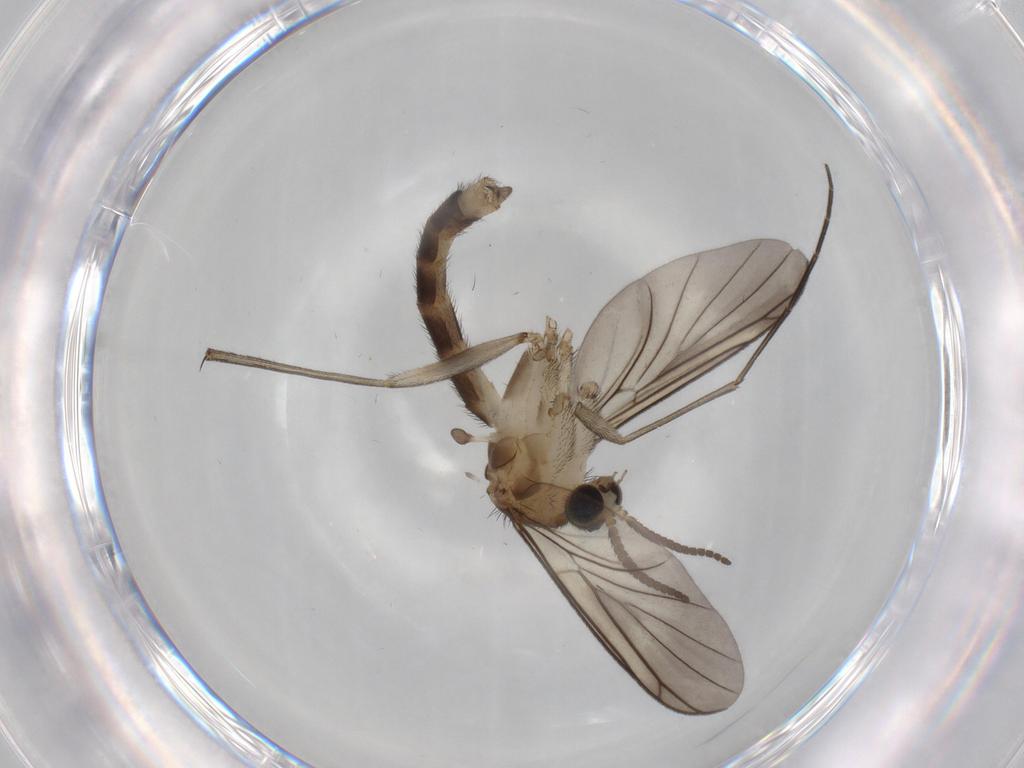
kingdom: Animalia
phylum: Arthropoda
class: Insecta
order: Diptera
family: Mycetophilidae
